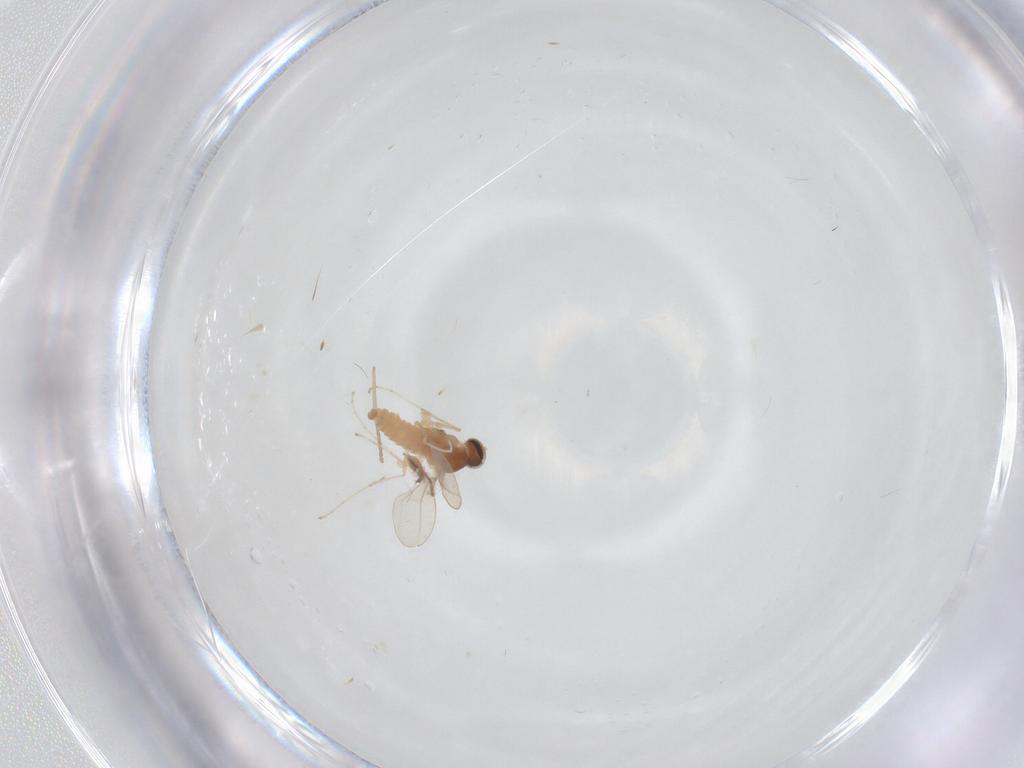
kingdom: Animalia
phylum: Arthropoda
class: Insecta
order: Diptera
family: Cecidomyiidae
